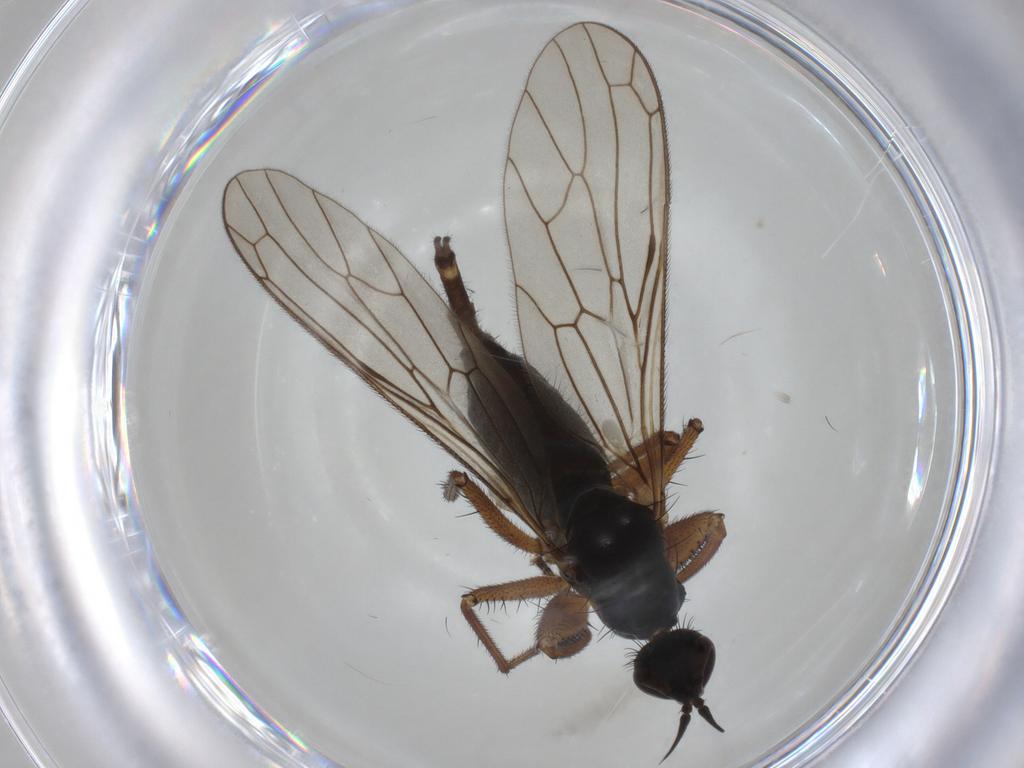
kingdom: Animalia
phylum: Arthropoda
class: Insecta
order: Diptera
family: Empididae
